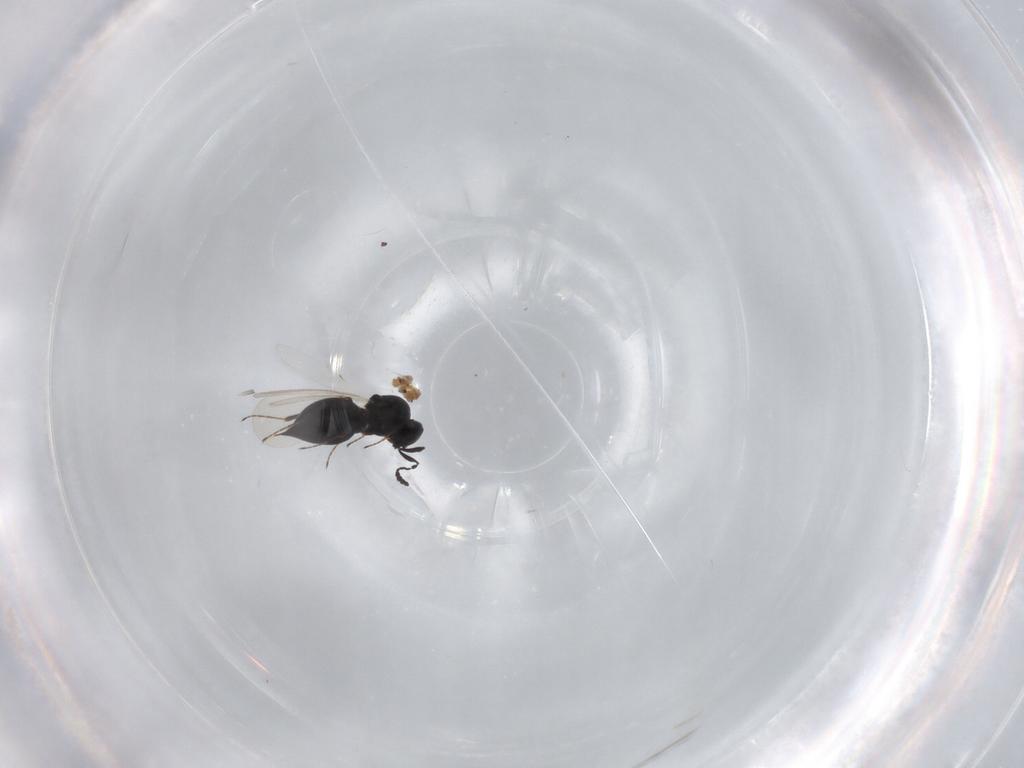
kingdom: Animalia
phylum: Arthropoda
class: Insecta
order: Hymenoptera
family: Platygastridae
